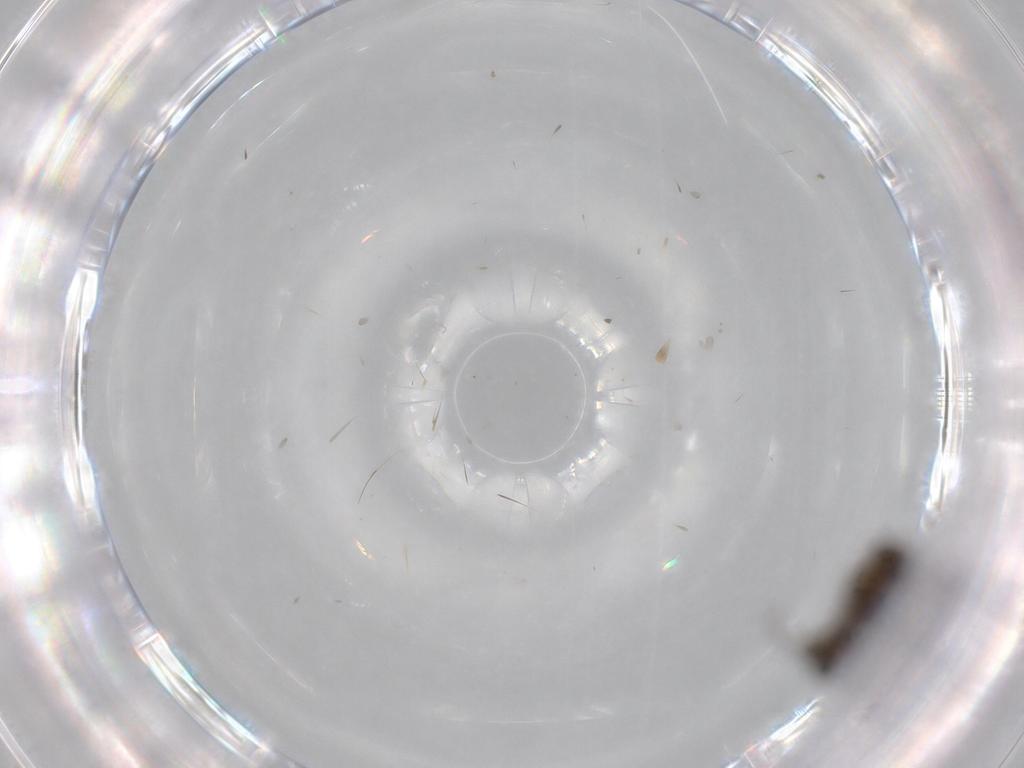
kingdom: Animalia
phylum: Arthropoda
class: Insecta
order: Diptera
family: Agromyzidae
